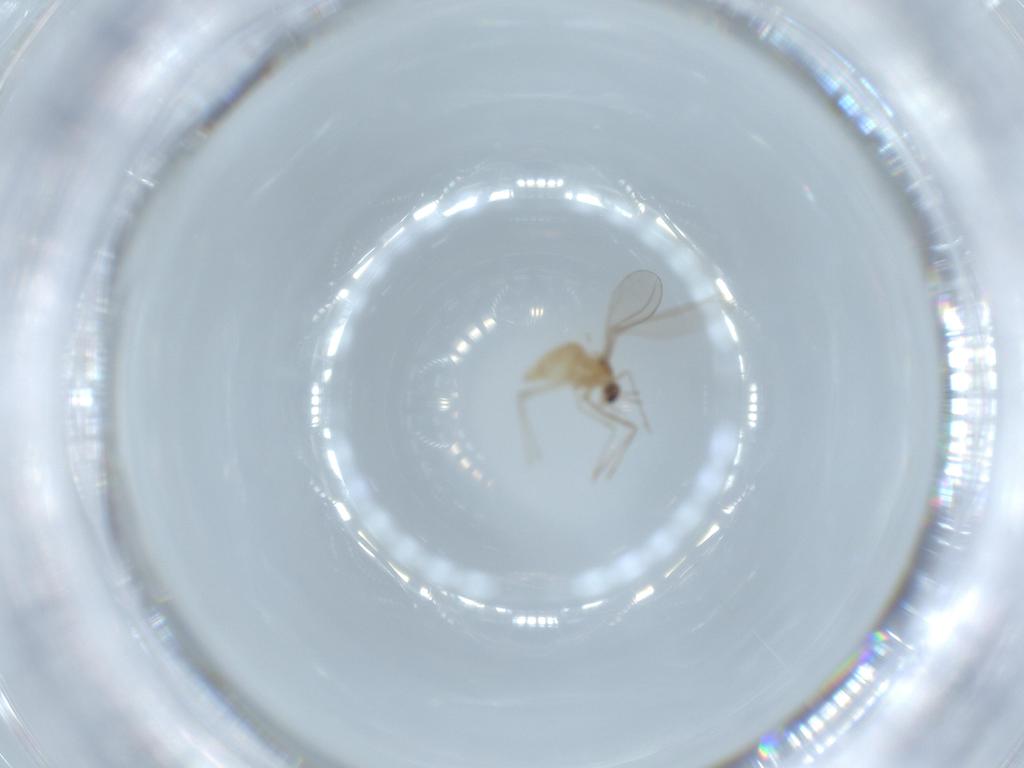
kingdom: Animalia
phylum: Arthropoda
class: Insecta
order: Diptera
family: Cecidomyiidae
